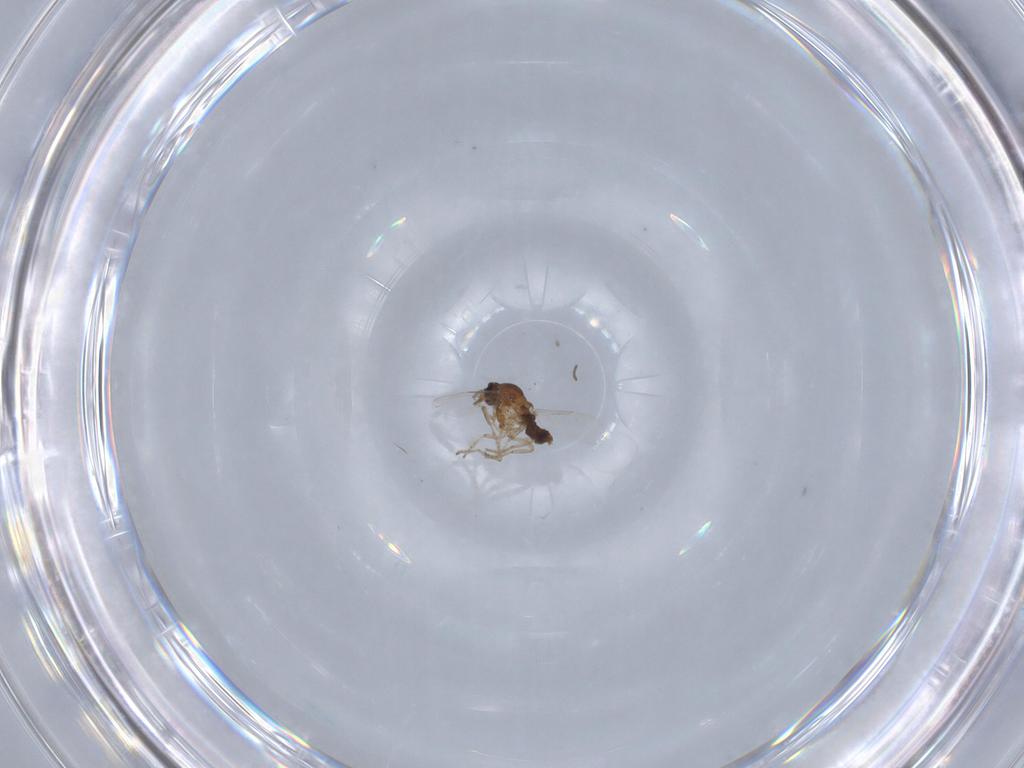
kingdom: Animalia
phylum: Arthropoda
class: Insecta
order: Diptera
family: Ceratopogonidae
